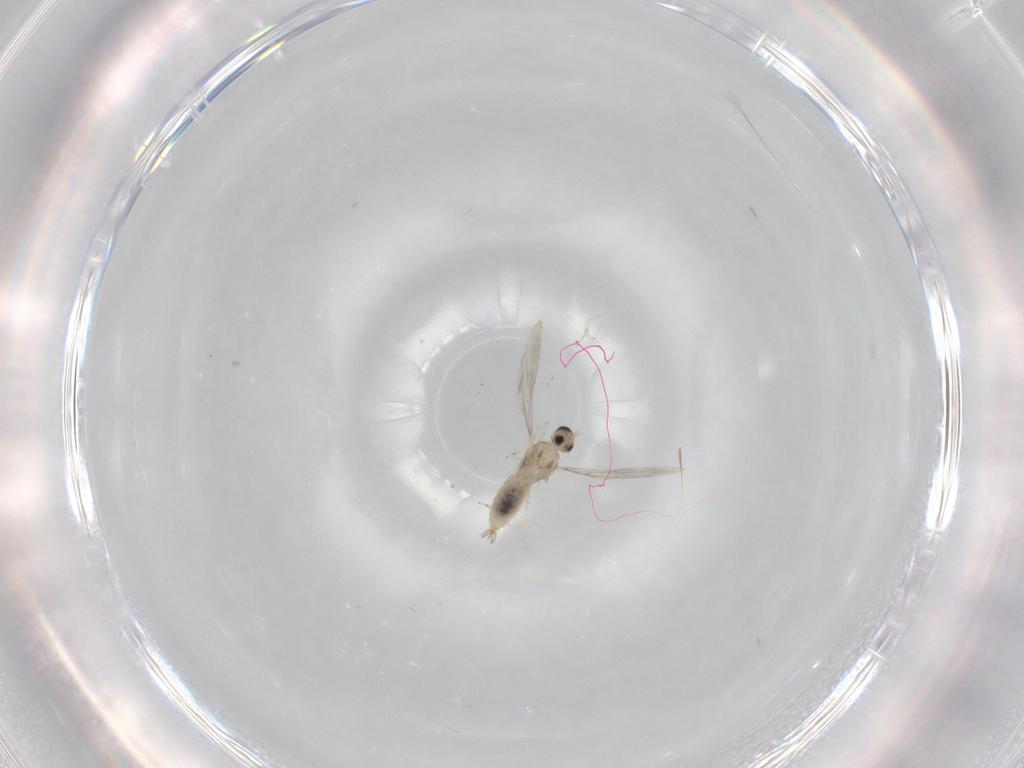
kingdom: Animalia
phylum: Arthropoda
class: Insecta
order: Diptera
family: Cecidomyiidae
